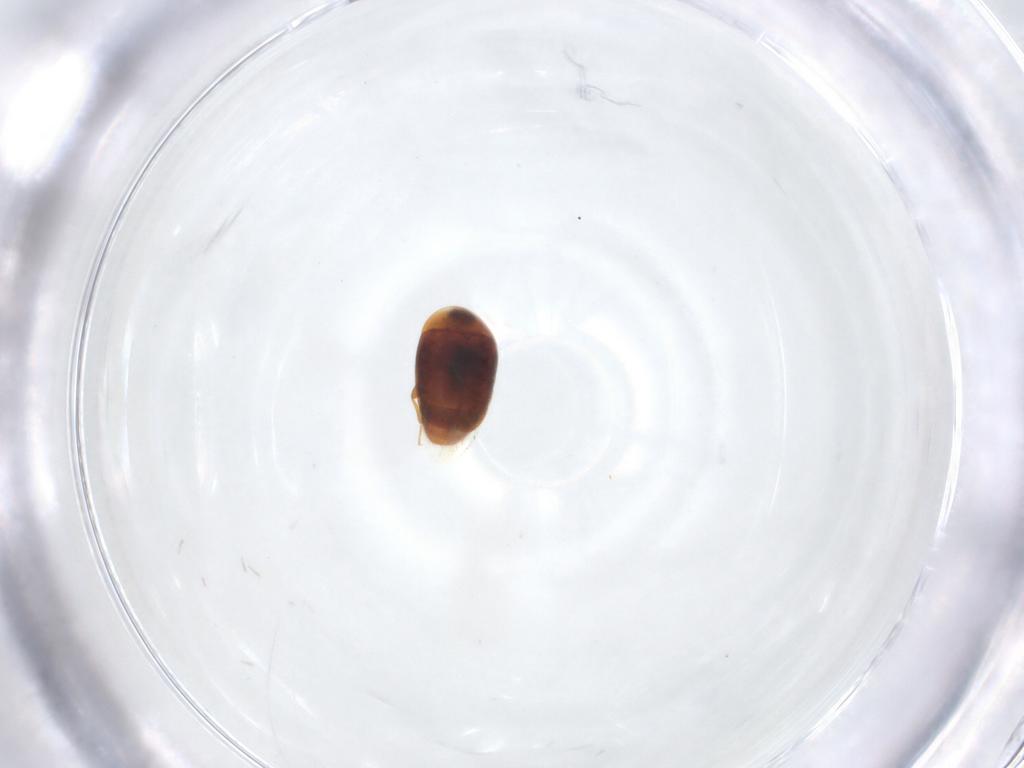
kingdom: Animalia
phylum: Arthropoda
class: Insecta
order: Coleoptera
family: Corylophidae
